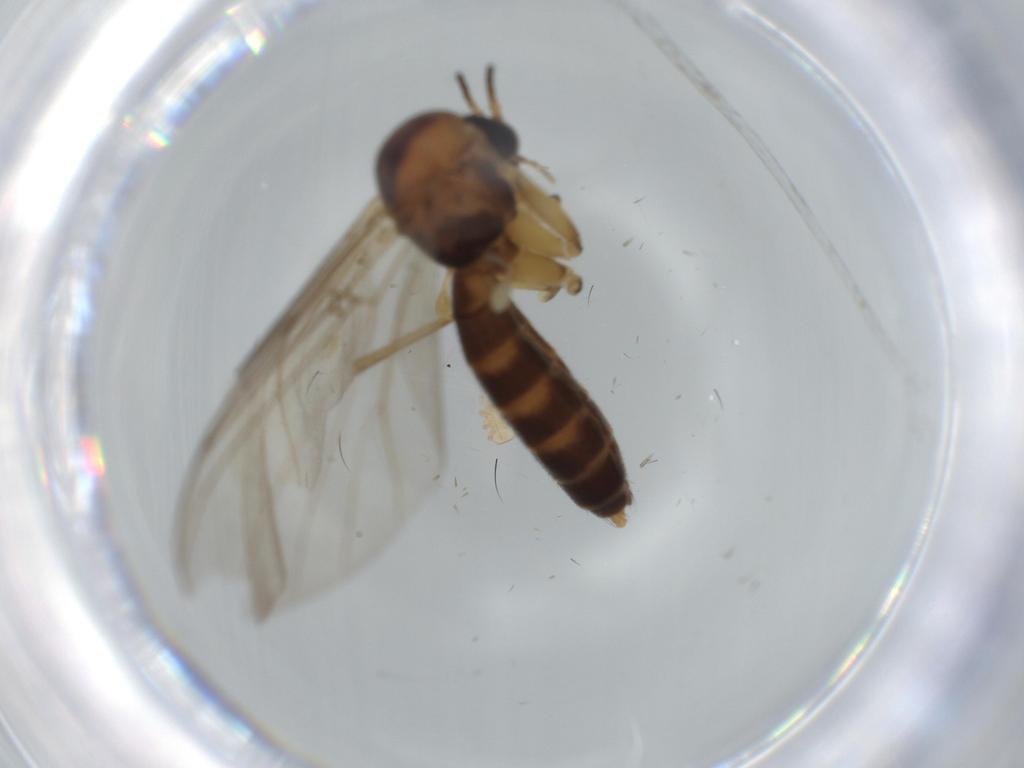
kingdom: Animalia
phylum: Arthropoda
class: Insecta
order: Diptera
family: Mycetophilidae
